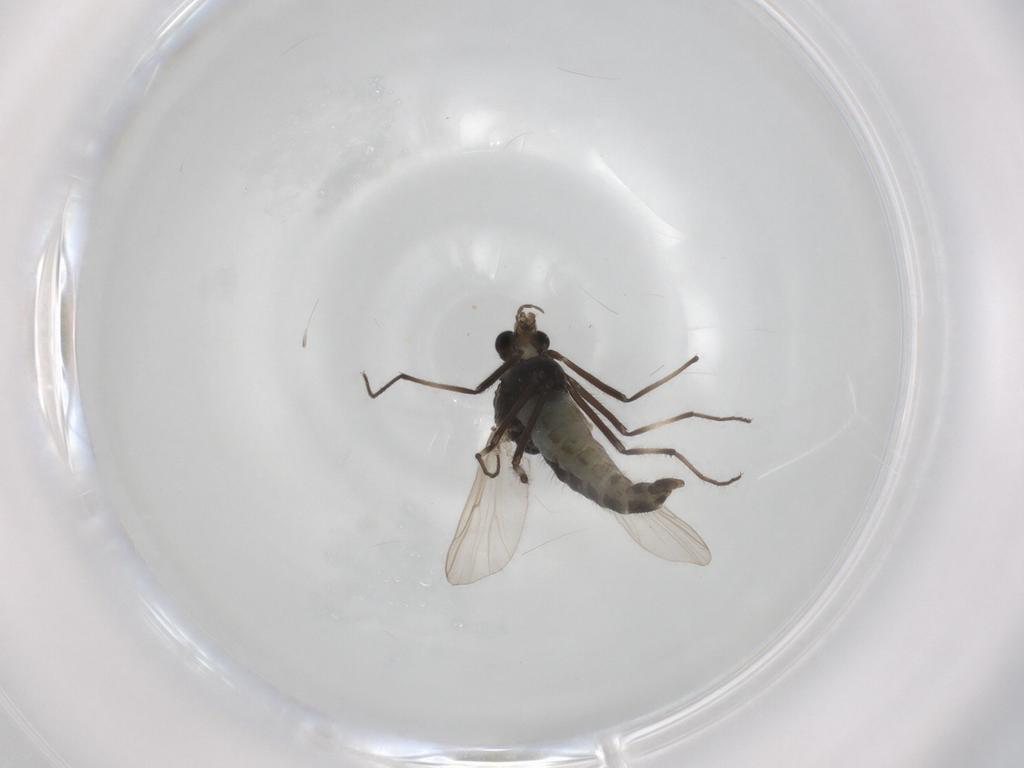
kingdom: Animalia
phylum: Arthropoda
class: Insecta
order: Diptera
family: Chironomidae
